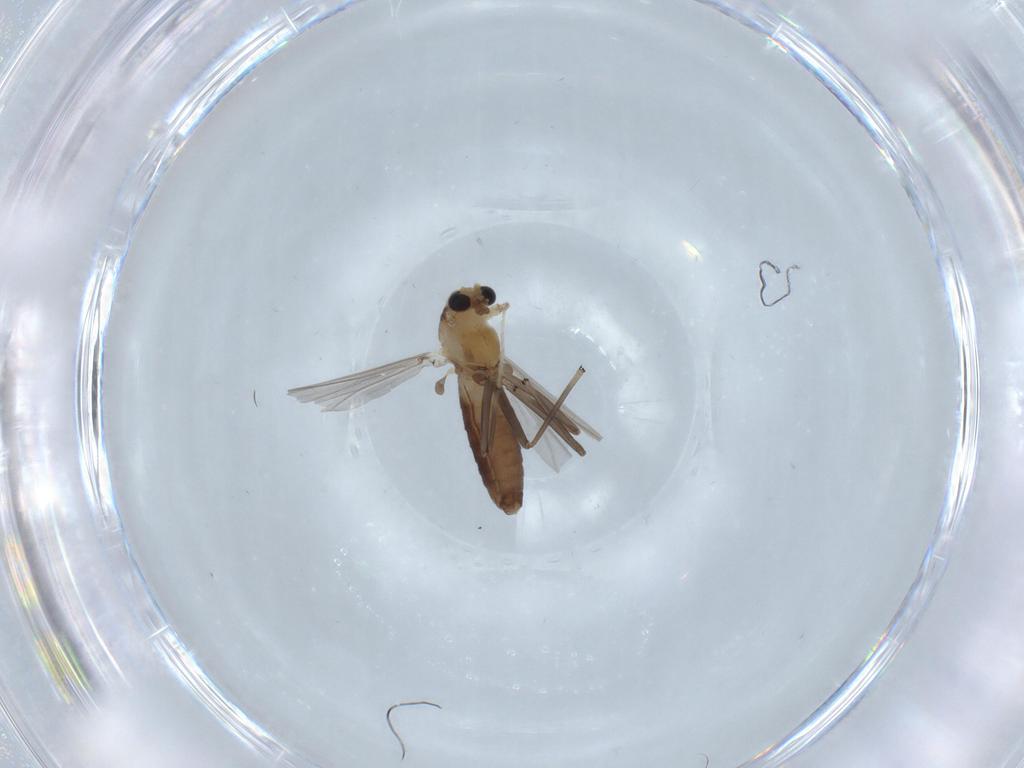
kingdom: Animalia
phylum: Arthropoda
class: Insecta
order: Diptera
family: Chironomidae
